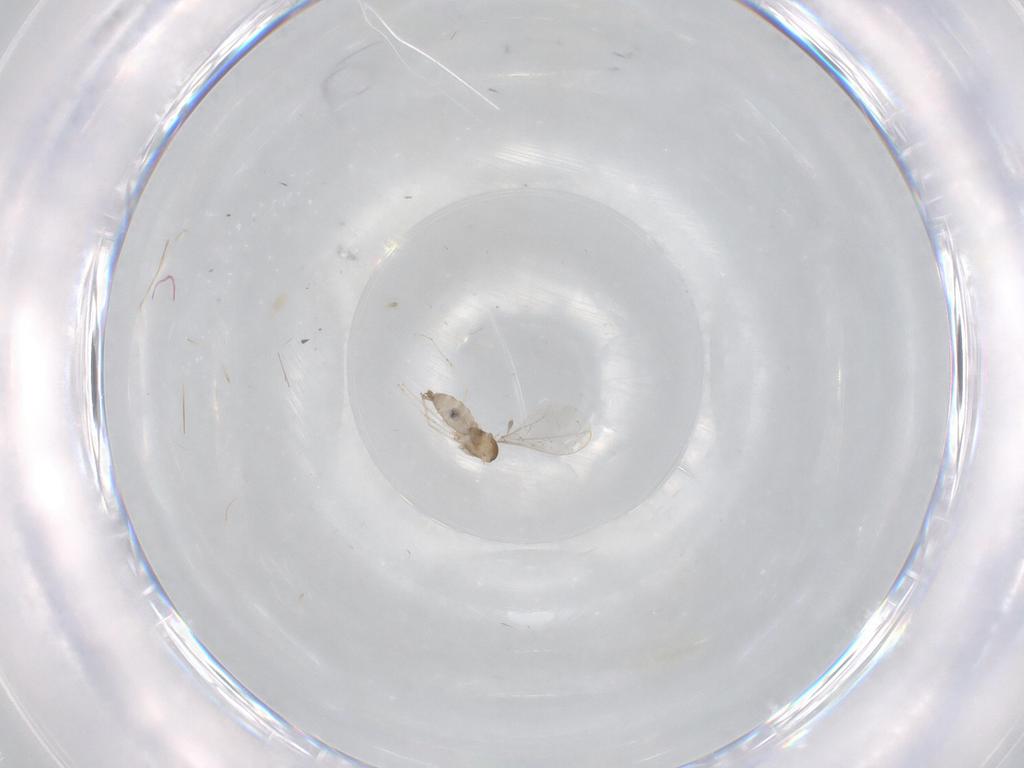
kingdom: Animalia
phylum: Arthropoda
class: Insecta
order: Diptera
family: Cecidomyiidae
